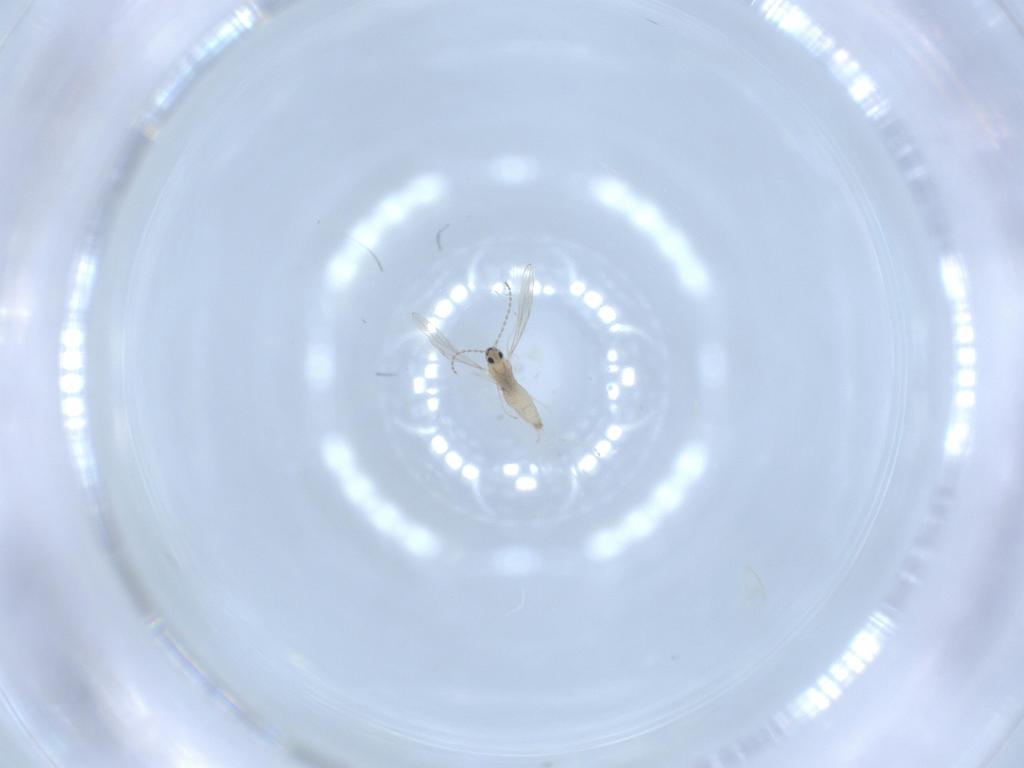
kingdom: Animalia
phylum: Arthropoda
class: Insecta
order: Diptera
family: Cecidomyiidae
